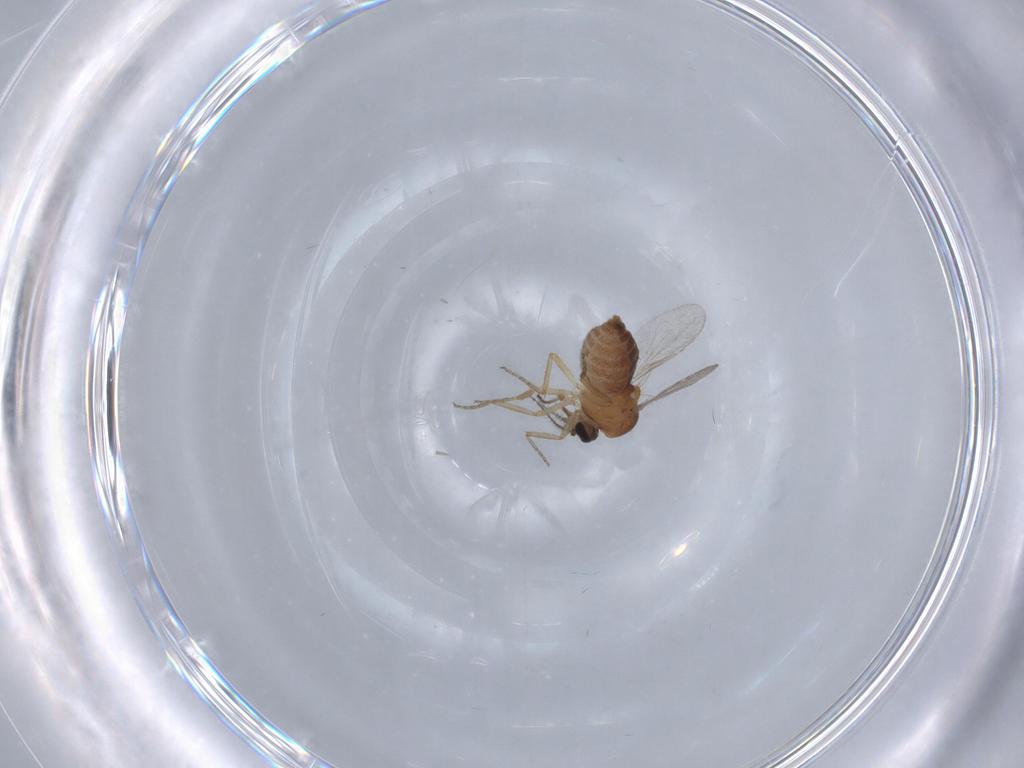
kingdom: Animalia
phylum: Arthropoda
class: Insecta
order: Diptera
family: Ceratopogonidae
